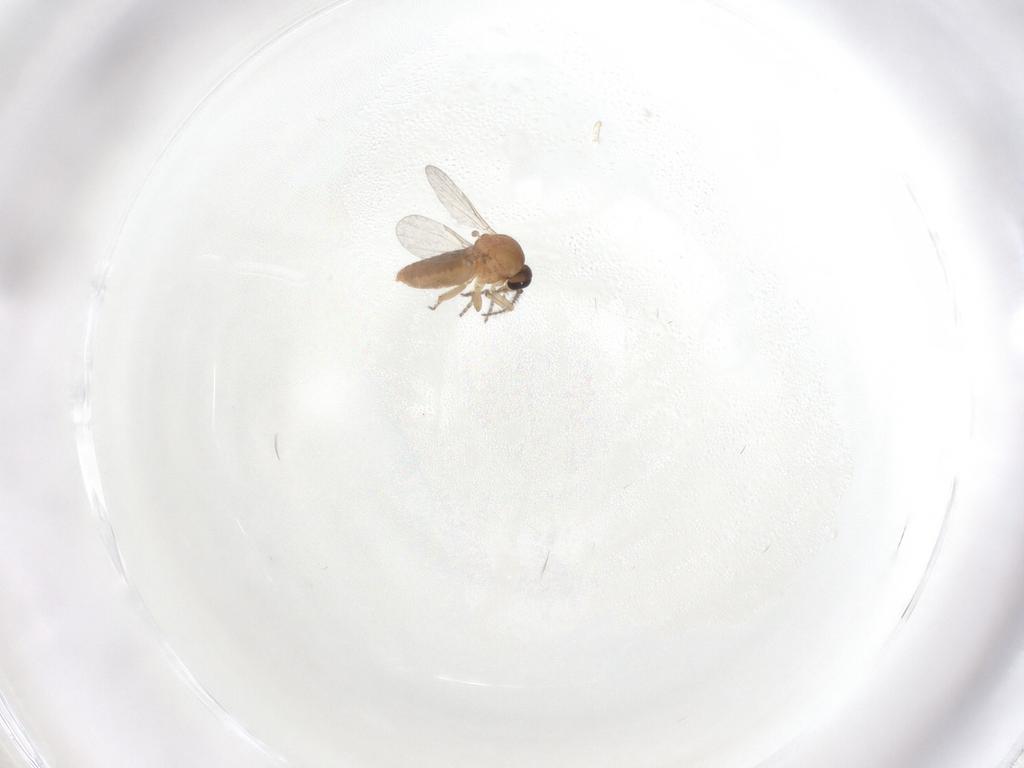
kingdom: Animalia
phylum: Arthropoda
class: Insecta
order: Diptera
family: Ceratopogonidae
